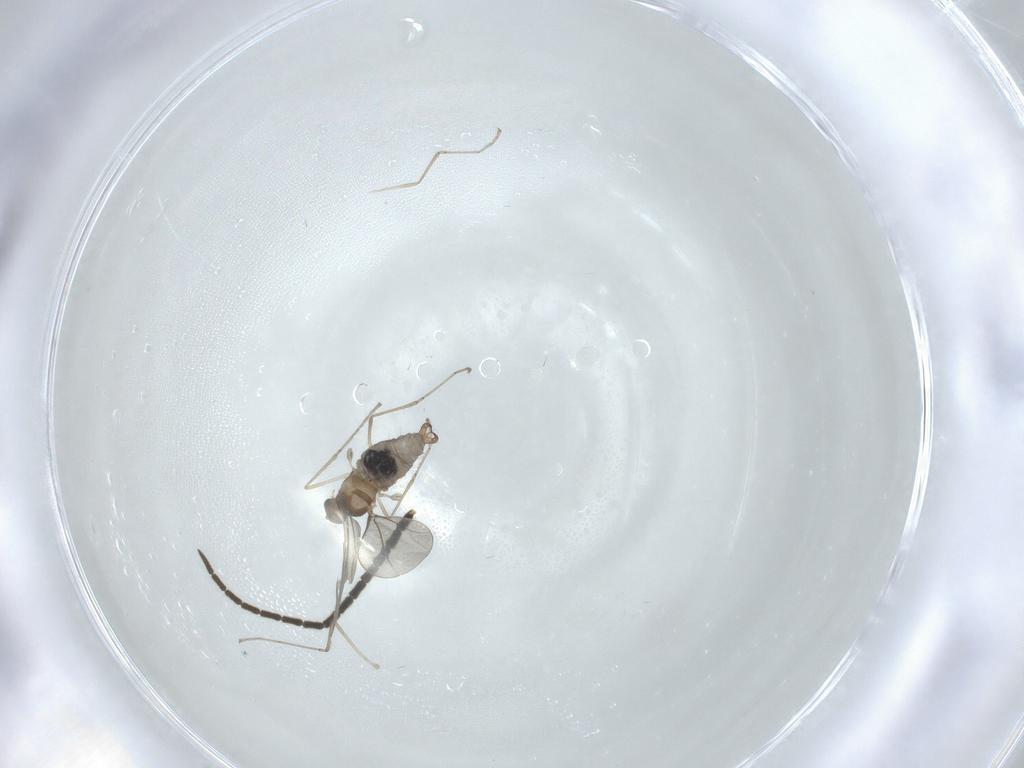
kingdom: Animalia
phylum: Arthropoda
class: Insecta
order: Diptera
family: Cecidomyiidae
